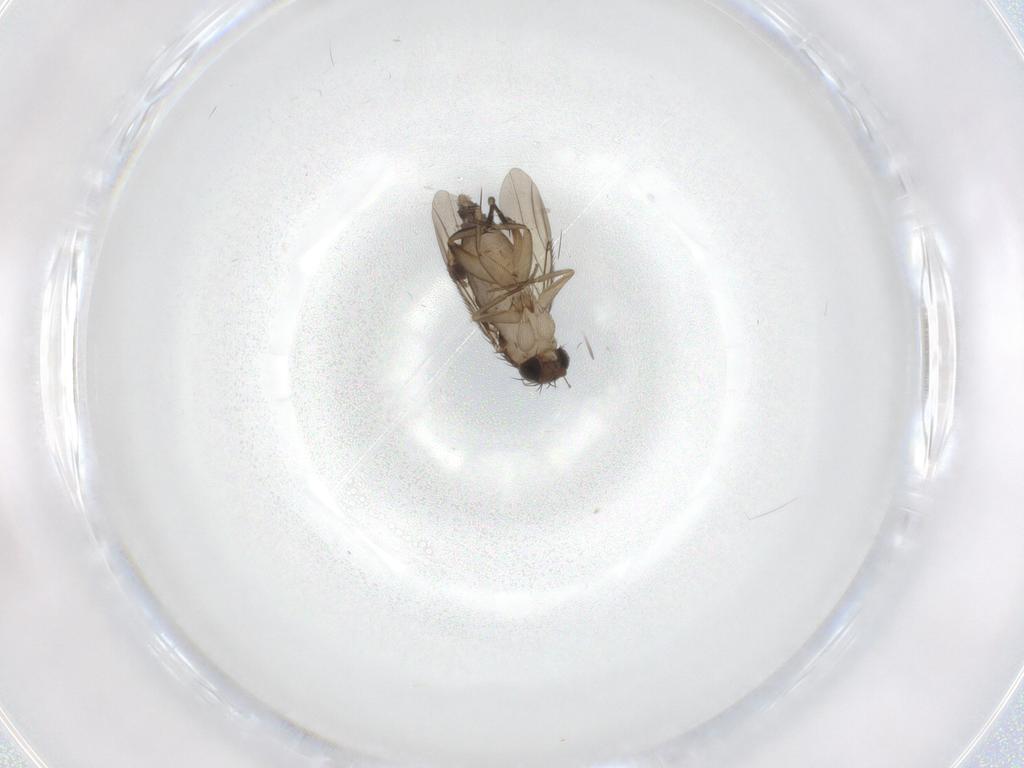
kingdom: Animalia
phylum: Arthropoda
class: Insecta
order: Diptera
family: Phoridae
